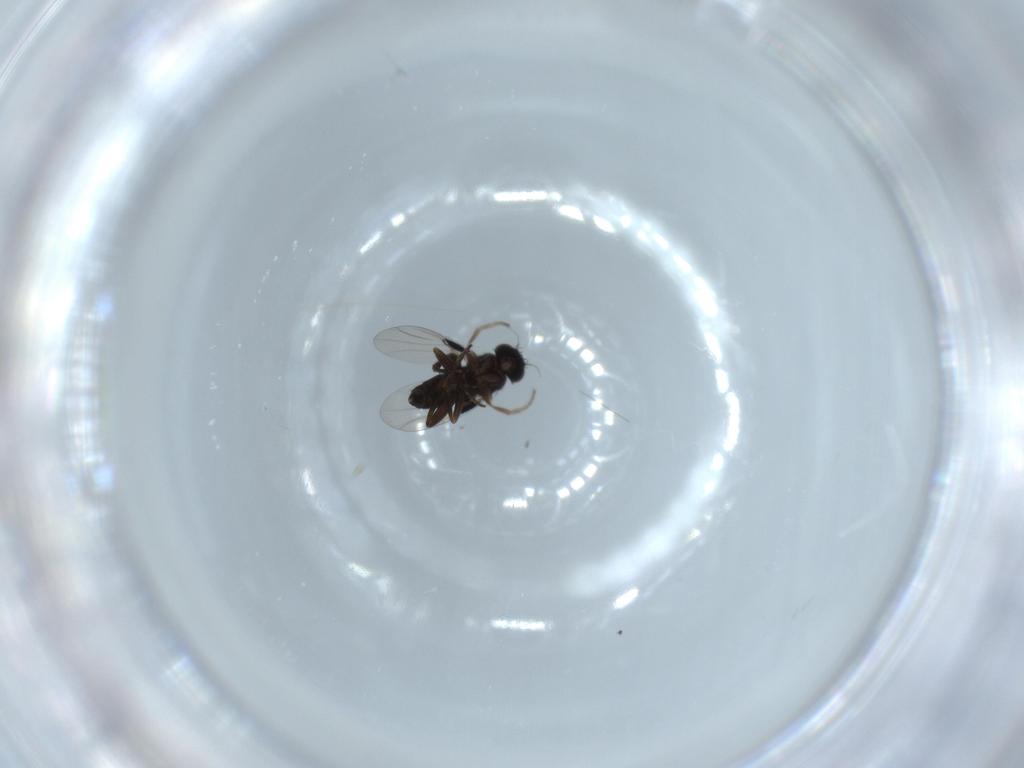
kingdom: Animalia
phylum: Arthropoda
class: Insecta
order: Diptera
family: Phoridae
